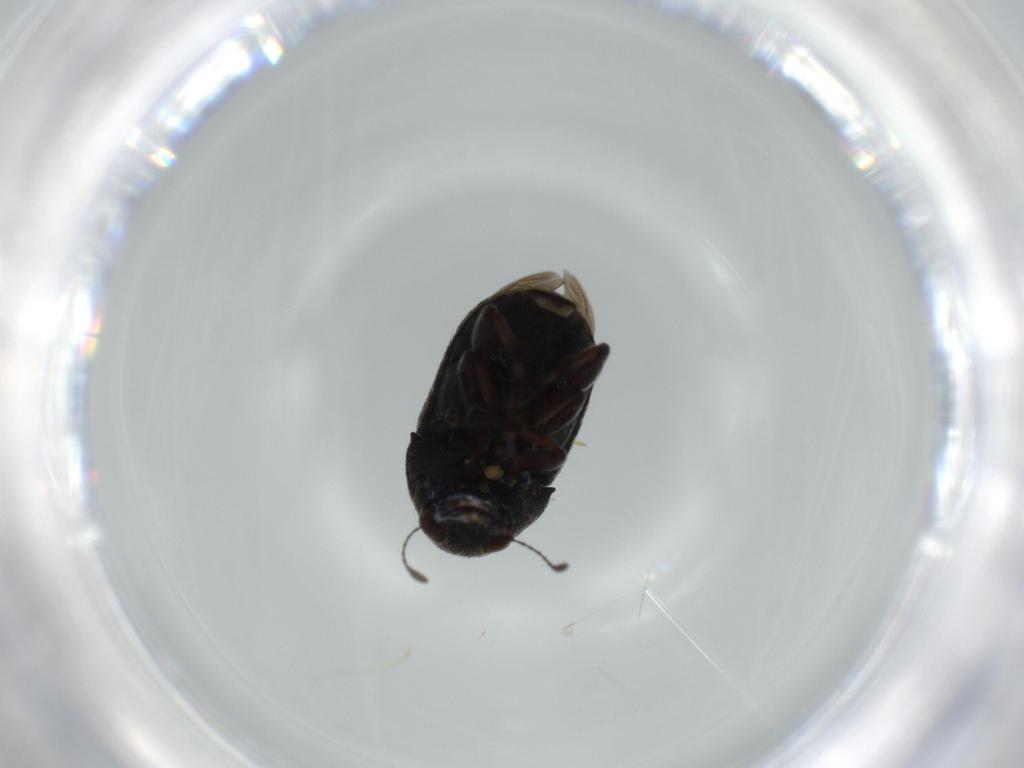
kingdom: Animalia
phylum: Arthropoda
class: Insecta
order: Coleoptera
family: Anthribidae
